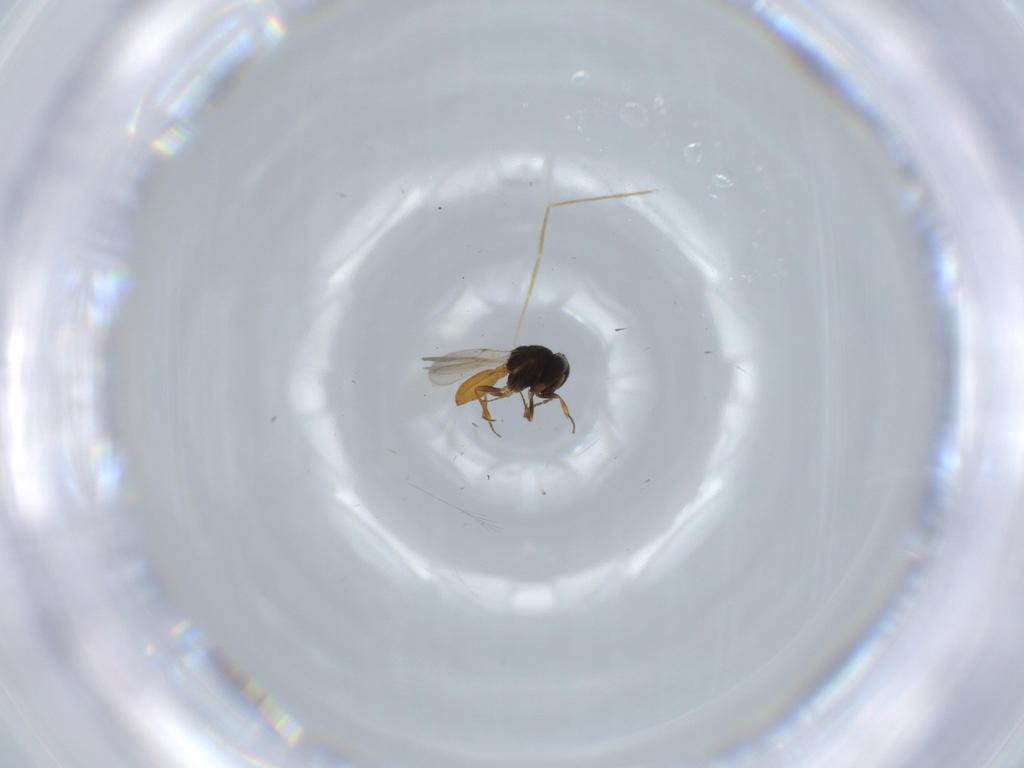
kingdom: Animalia
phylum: Arthropoda
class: Insecta
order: Hymenoptera
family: Scelionidae
